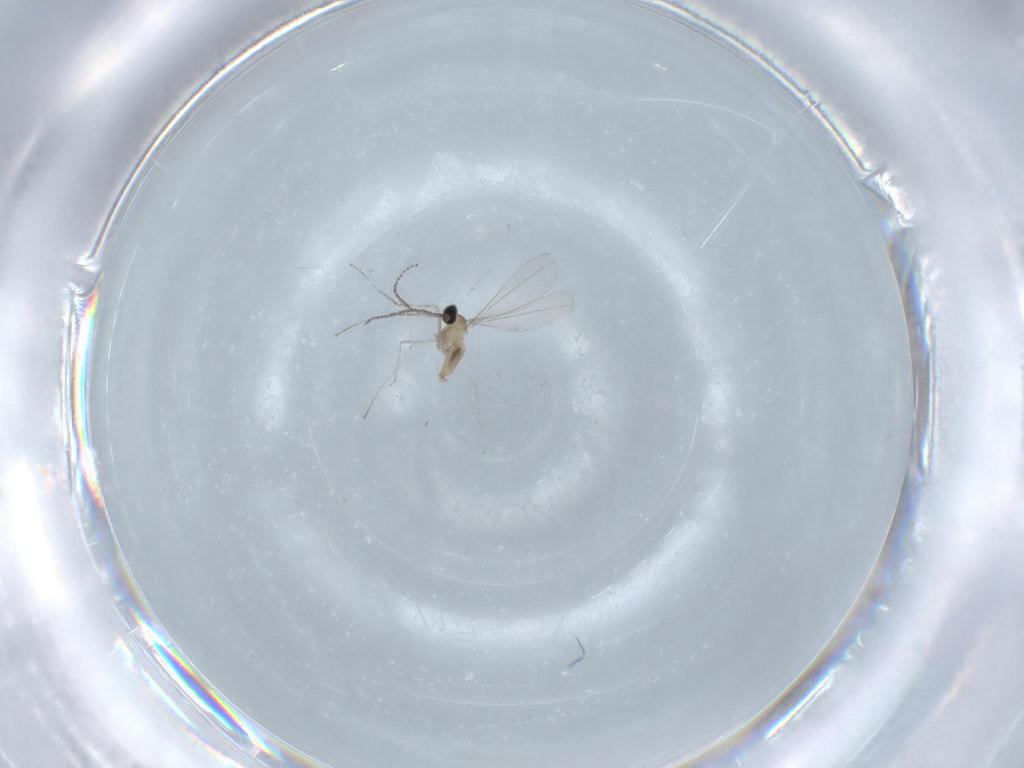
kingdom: Animalia
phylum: Arthropoda
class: Insecta
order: Diptera
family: Cecidomyiidae
